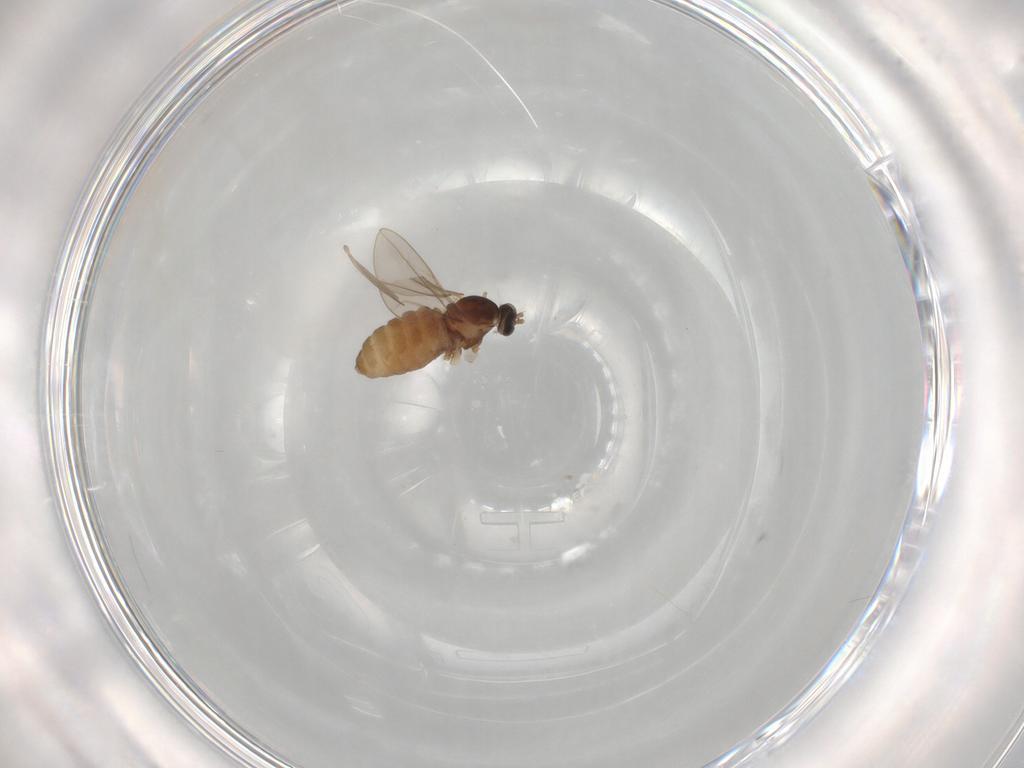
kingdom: Animalia
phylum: Arthropoda
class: Insecta
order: Diptera
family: Cecidomyiidae
